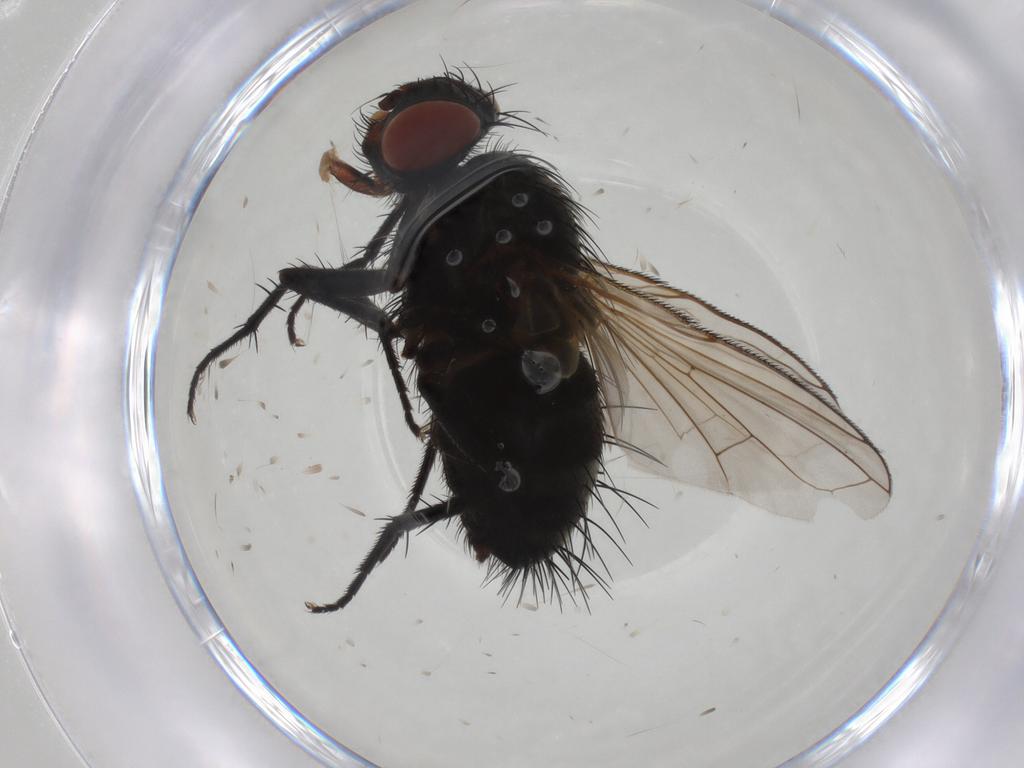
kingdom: Animalia
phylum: Arthropoda
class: Insecta
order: Diptera
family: Tachinidae
